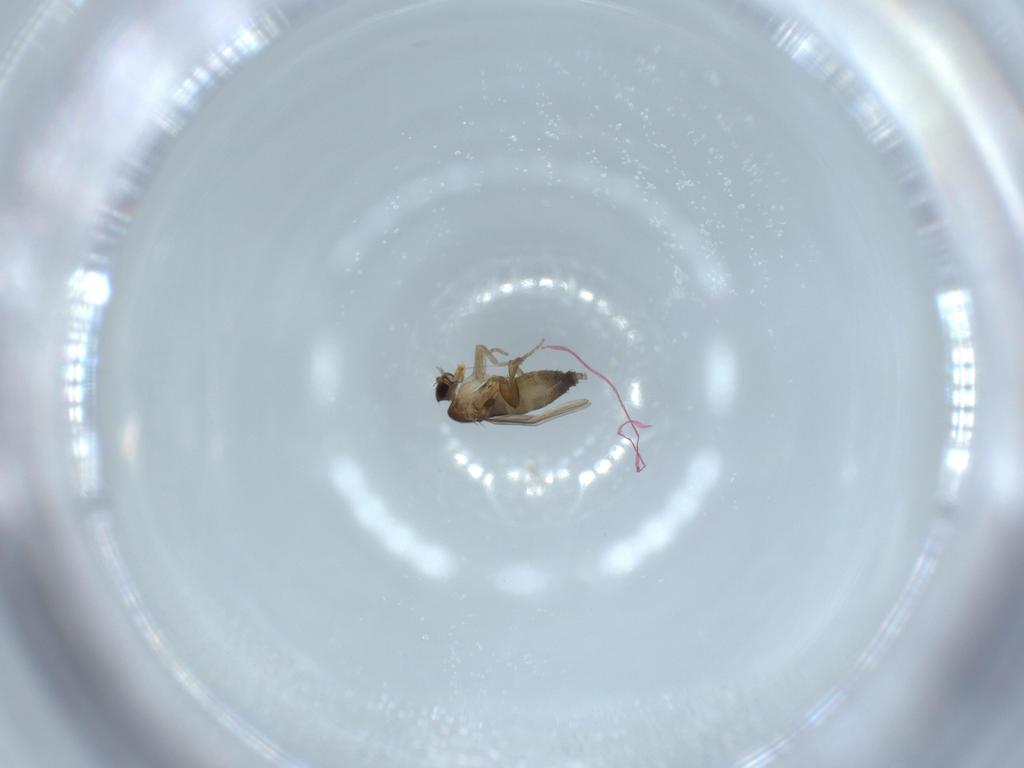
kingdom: Animalia
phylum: Arthropoda
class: Insecta
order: Diptera
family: Phoridae
